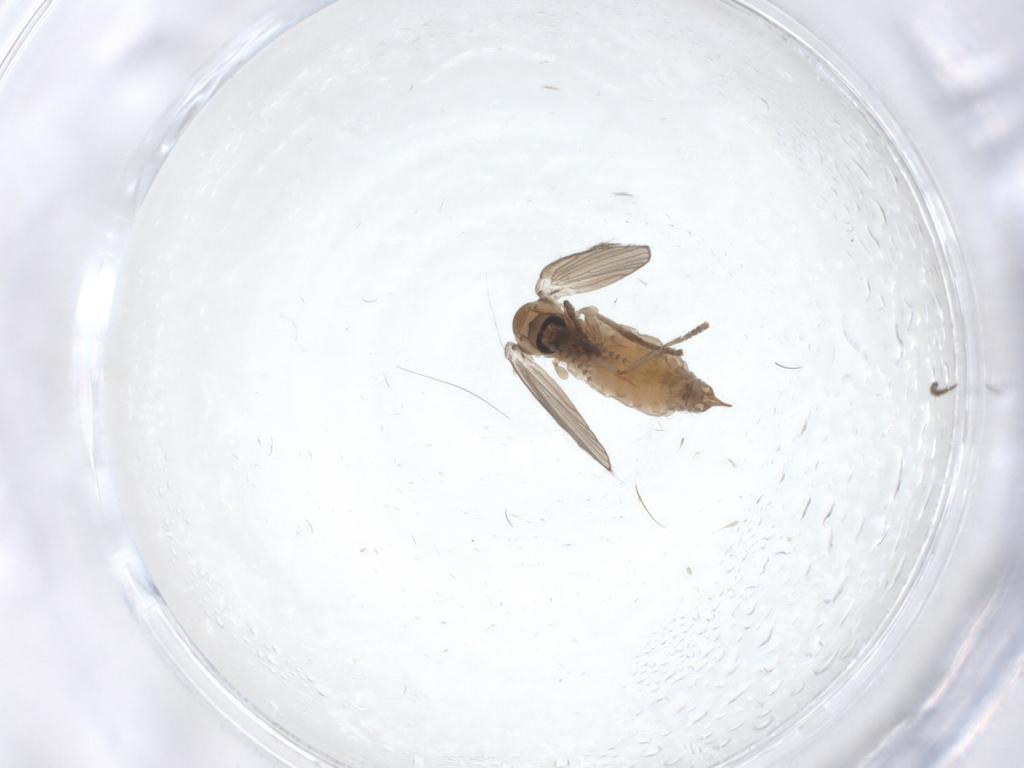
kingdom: Animalia
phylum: Arthropoda
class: Insecta
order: Diptera
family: Psychodidae
